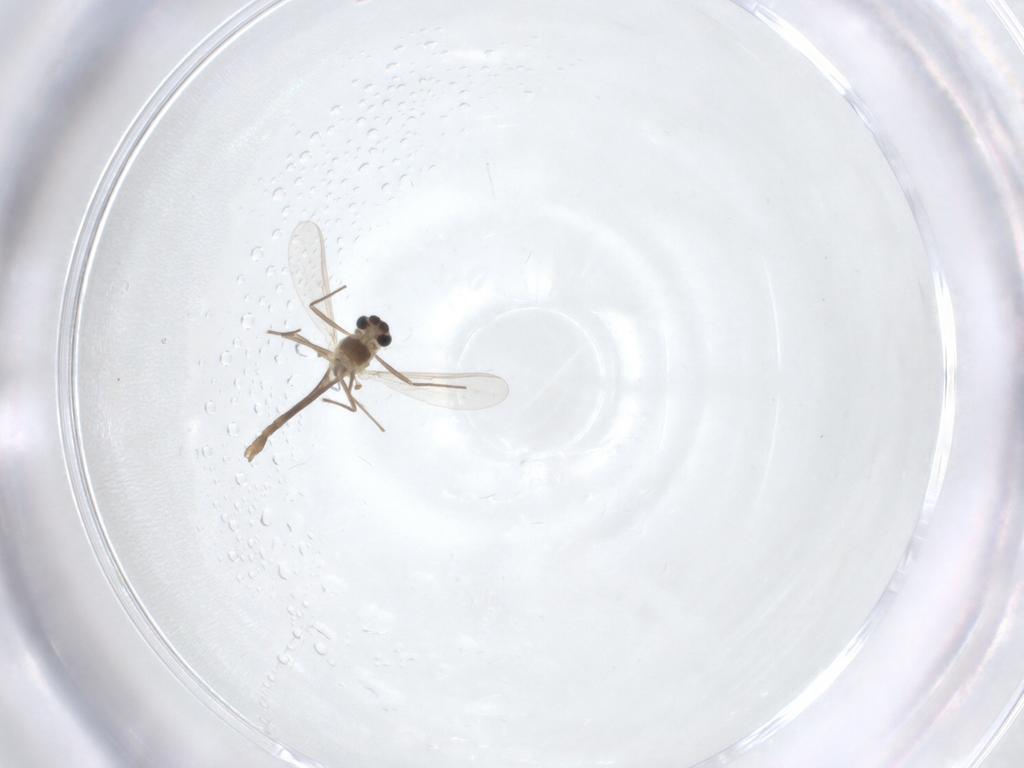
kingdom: Animalia
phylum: Arthropoda
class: Insecta
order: Diptera
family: Chironomidae
